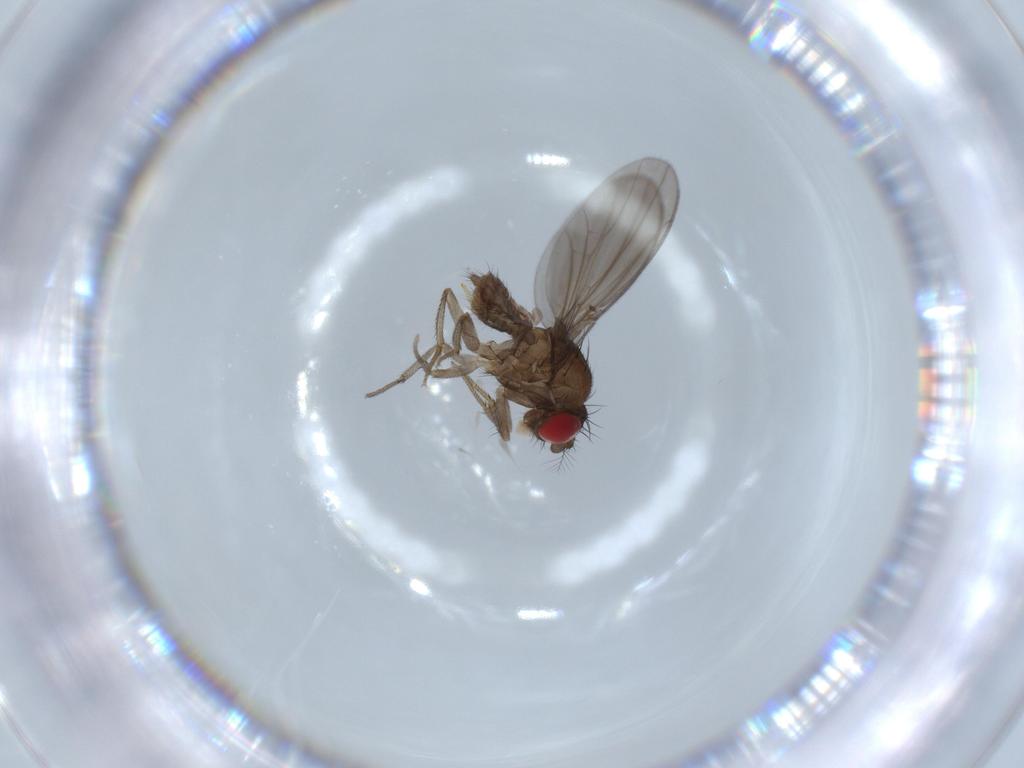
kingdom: Animalia
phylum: Arthropoda
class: Insecta
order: Diptera
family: Drosophilidae
